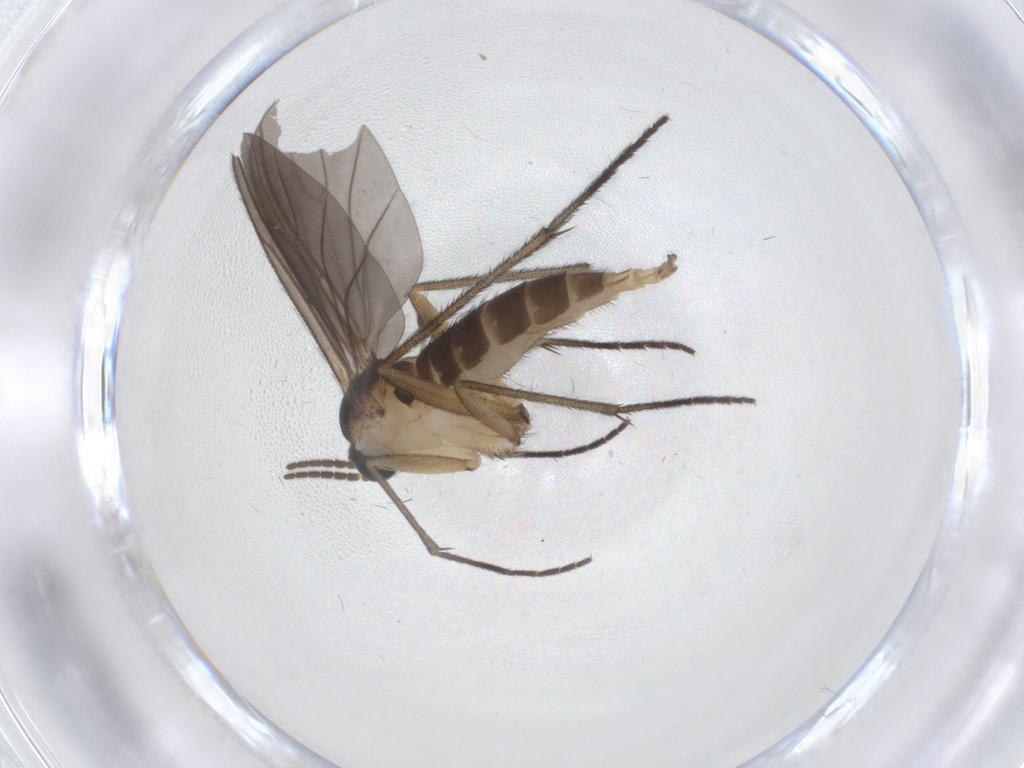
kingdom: Animalia
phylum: Arthropoda
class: Insecta
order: Diptera
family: Sciaridae
